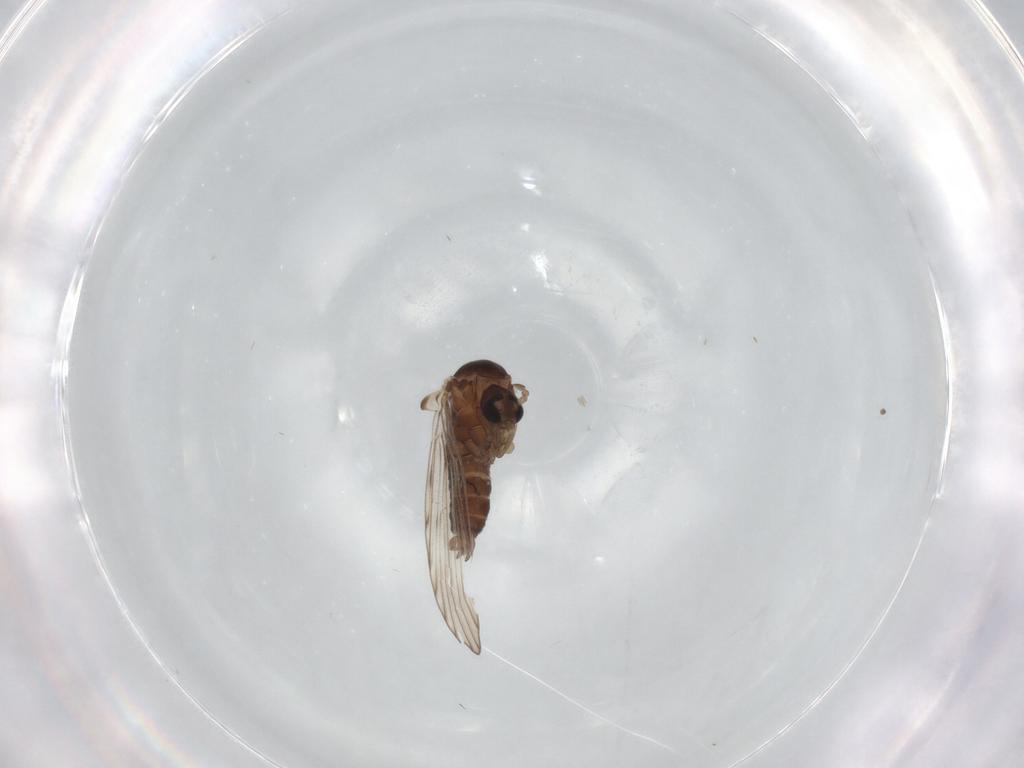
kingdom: Animalia
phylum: Arthropoda
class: Insecta
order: Diptera
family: Psychodidae
